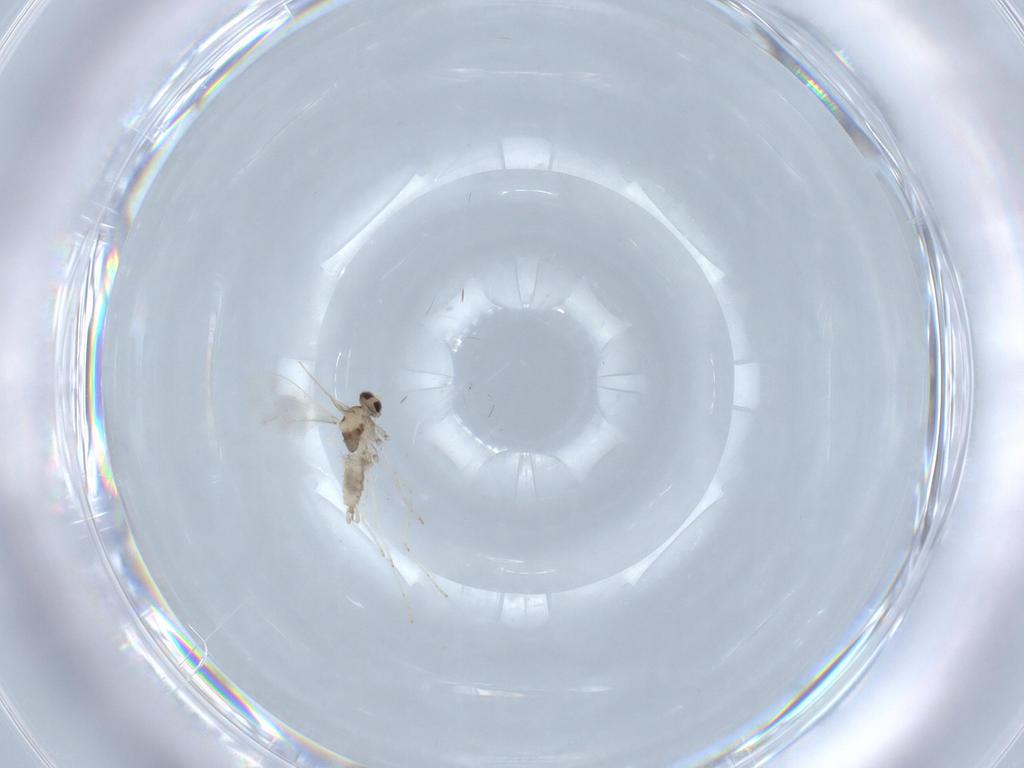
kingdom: Animalia
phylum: Arthropoda
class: Insecta
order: Diptera
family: Cecidomyiidae
